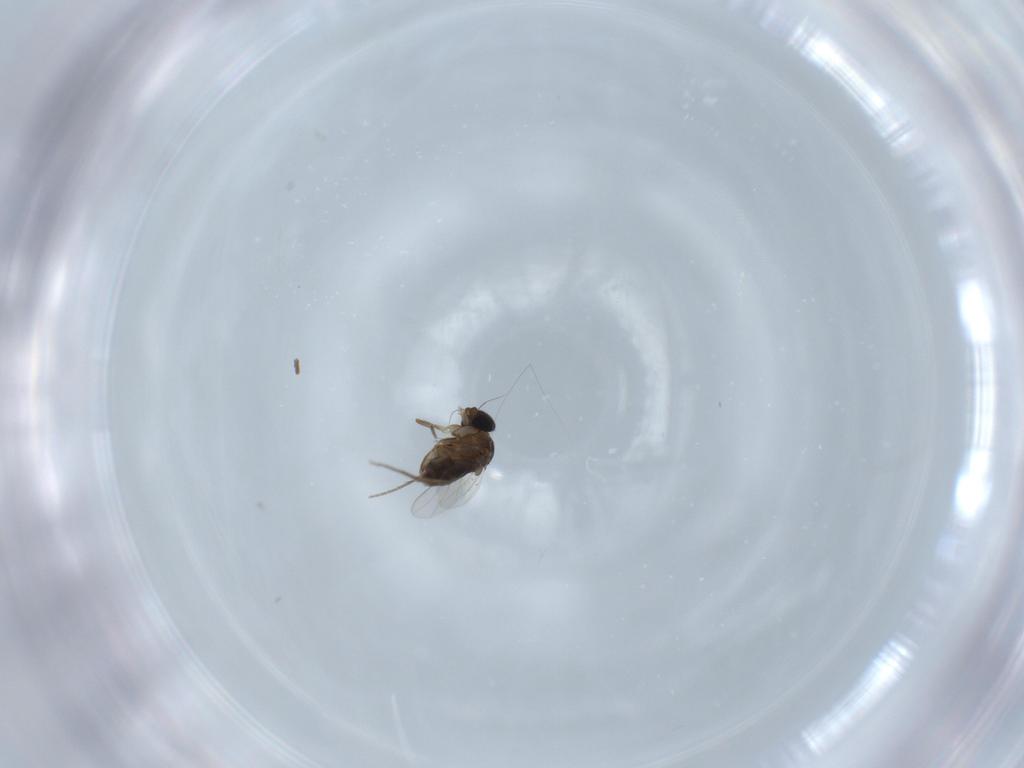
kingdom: Animalia
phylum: Arthropoda
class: Insecta
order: Diptera
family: Phoridae
